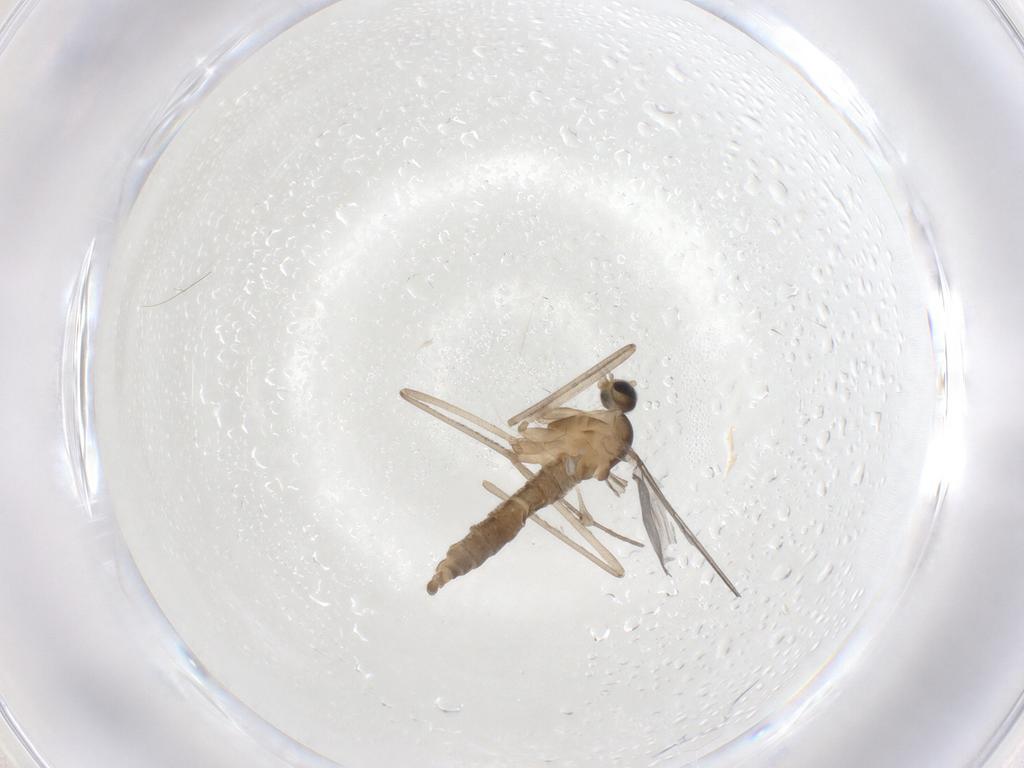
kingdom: Animalia
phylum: Arthropoda
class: Insecta
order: Diptera
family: Cecidomyiidae
